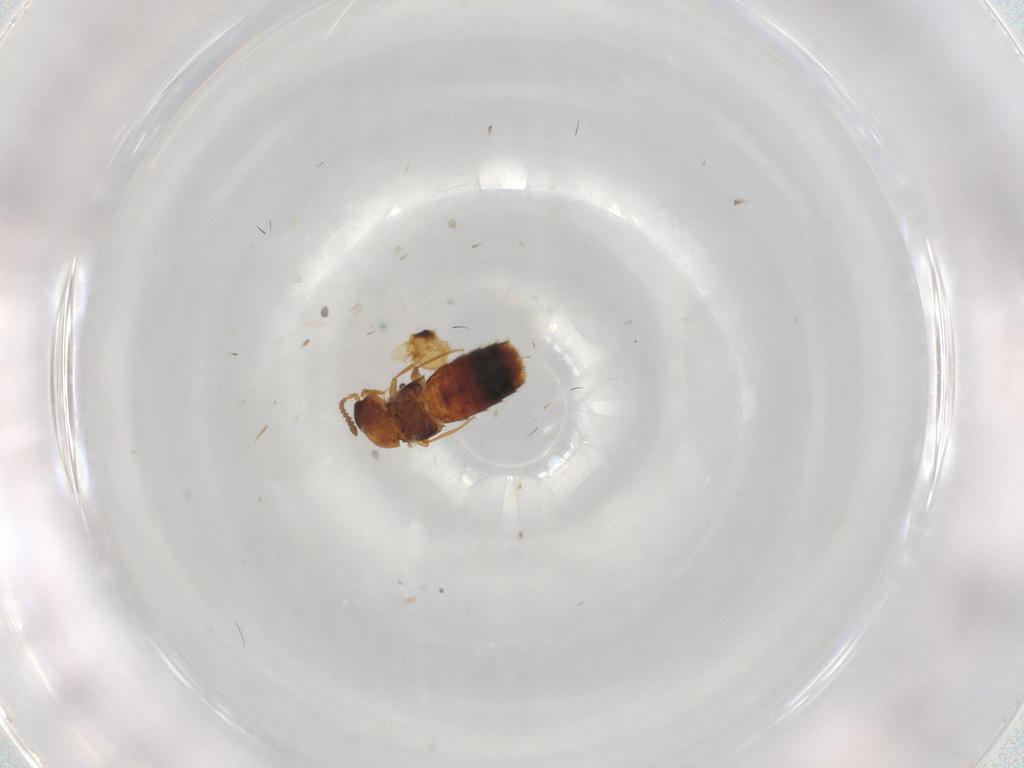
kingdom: Animalia
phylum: Arthropoda
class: Insecta
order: Coleoptera
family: Staphylinidae
